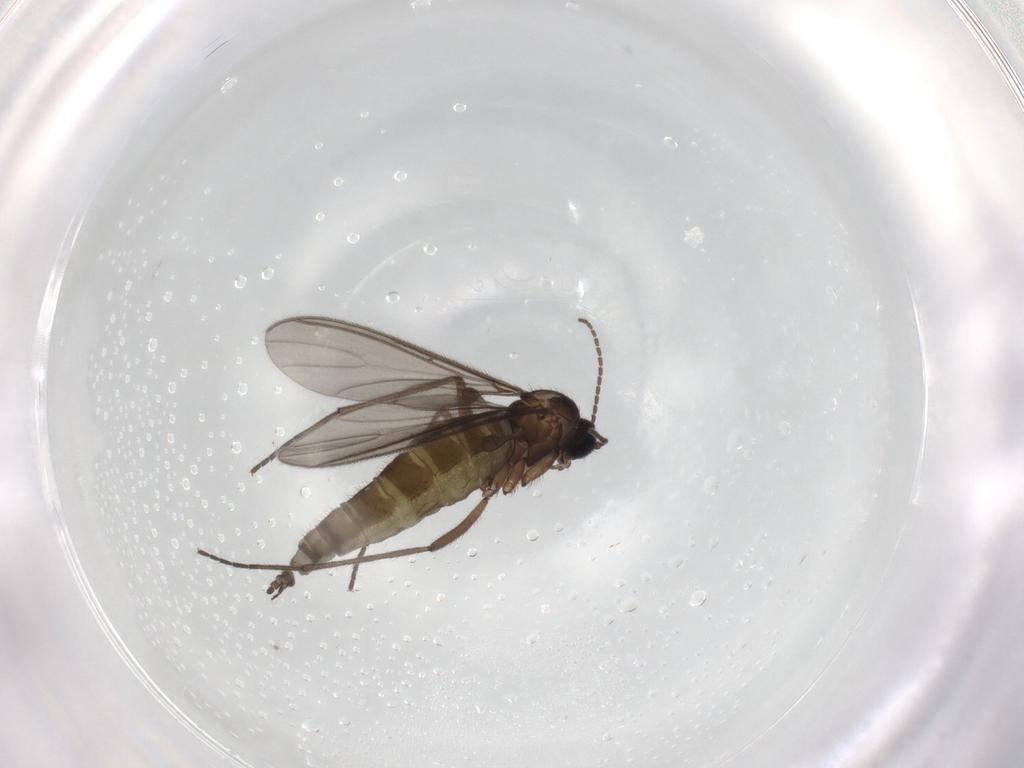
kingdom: Animalia
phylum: Arthropoda
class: Insecta
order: Diptera
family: Sciaridae
